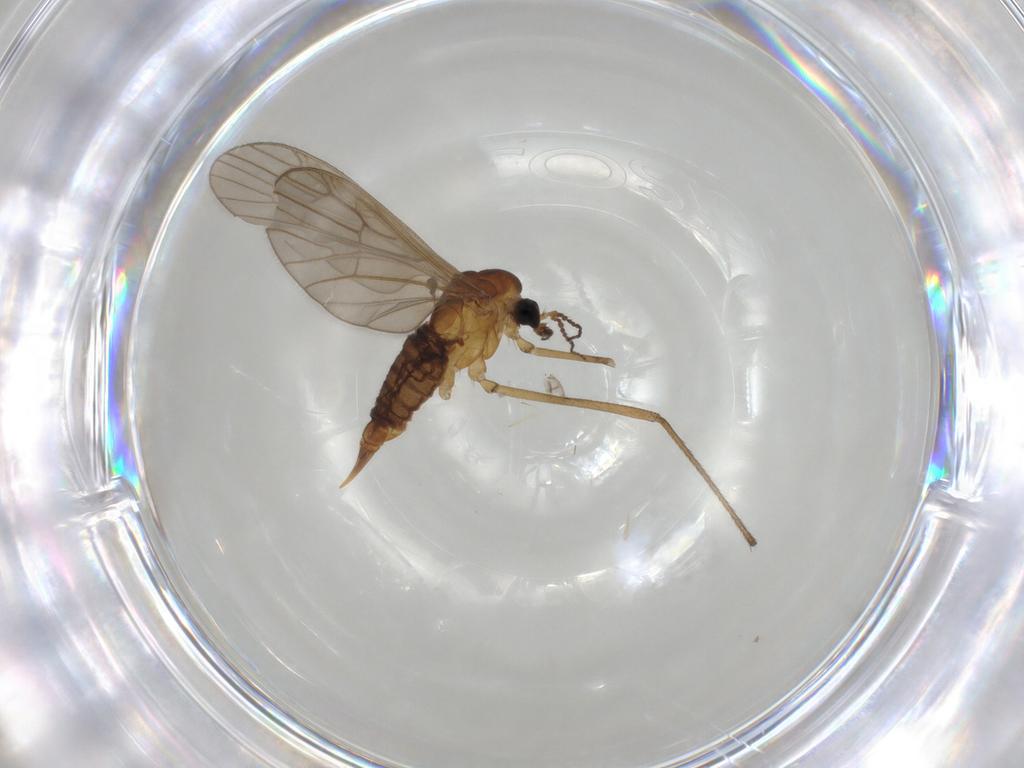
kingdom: Animalia
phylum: Arthropoda
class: Insecta
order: Diptera
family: Limoniidae
